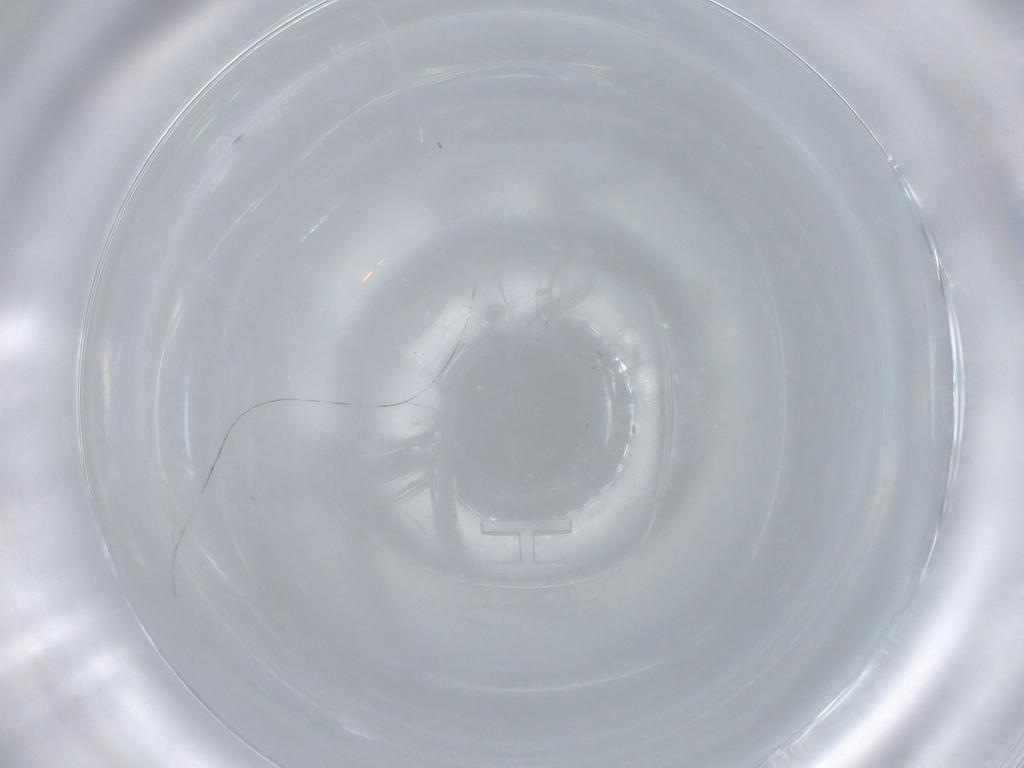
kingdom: Animalia
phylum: Arthropoda
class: Insecta
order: Diptera
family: Cecidomyiidae
